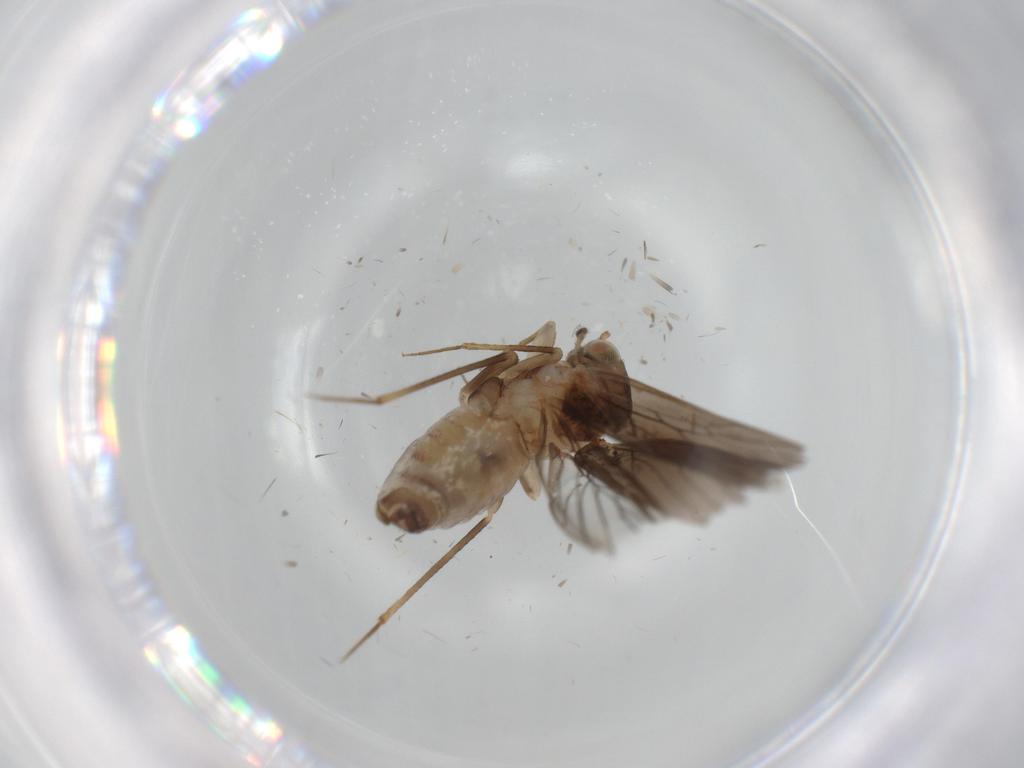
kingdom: Animalia
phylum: Arthropoda
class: Insecta
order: Psocodea
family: Lepidopsocidae
